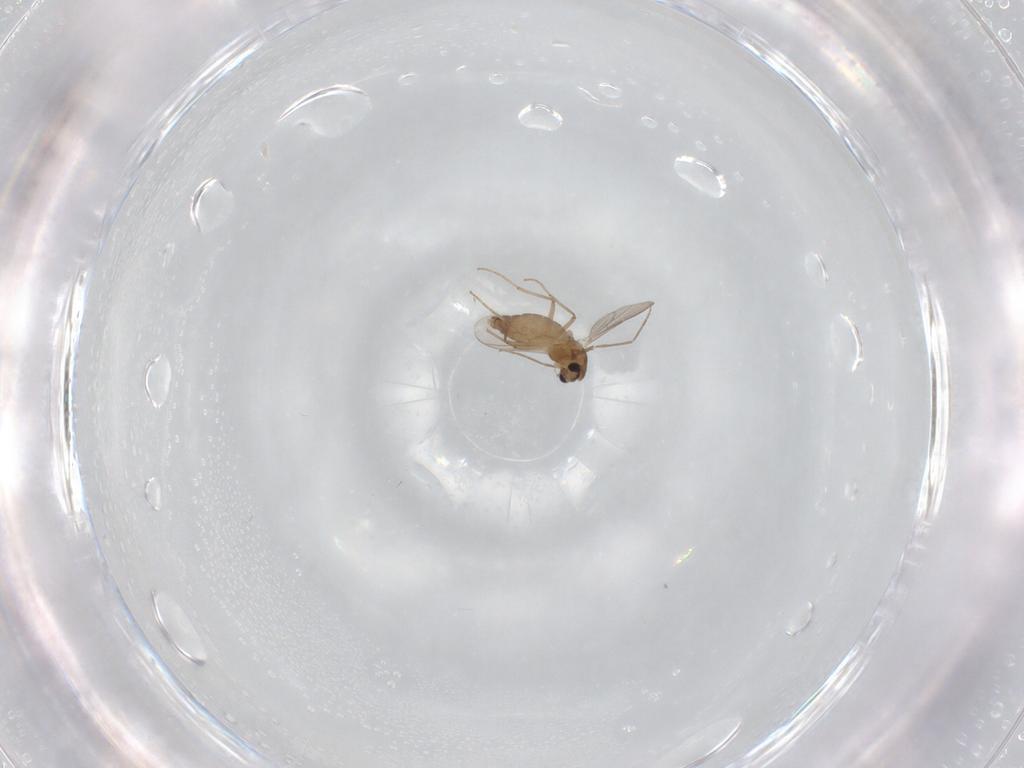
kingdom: Animalia
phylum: Arthropoda
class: Insecta
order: Diptera
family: Chironomidae
